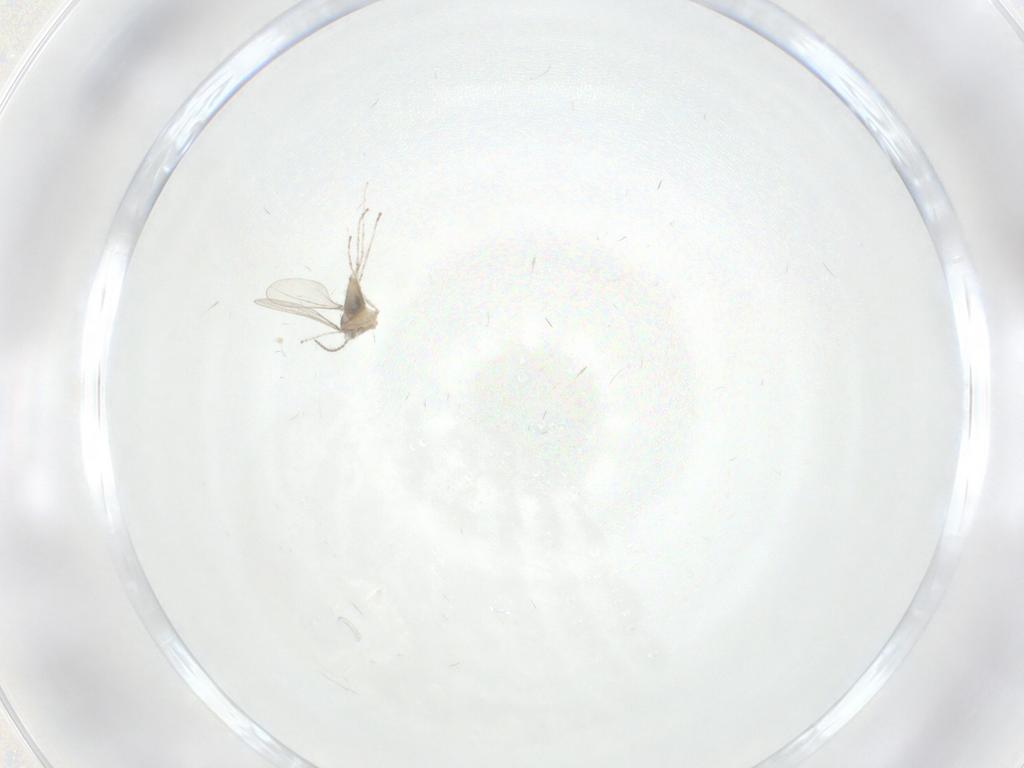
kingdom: Animalia
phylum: Arthropoda
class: Insecta
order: Diptera
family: Cecidomyiidae
